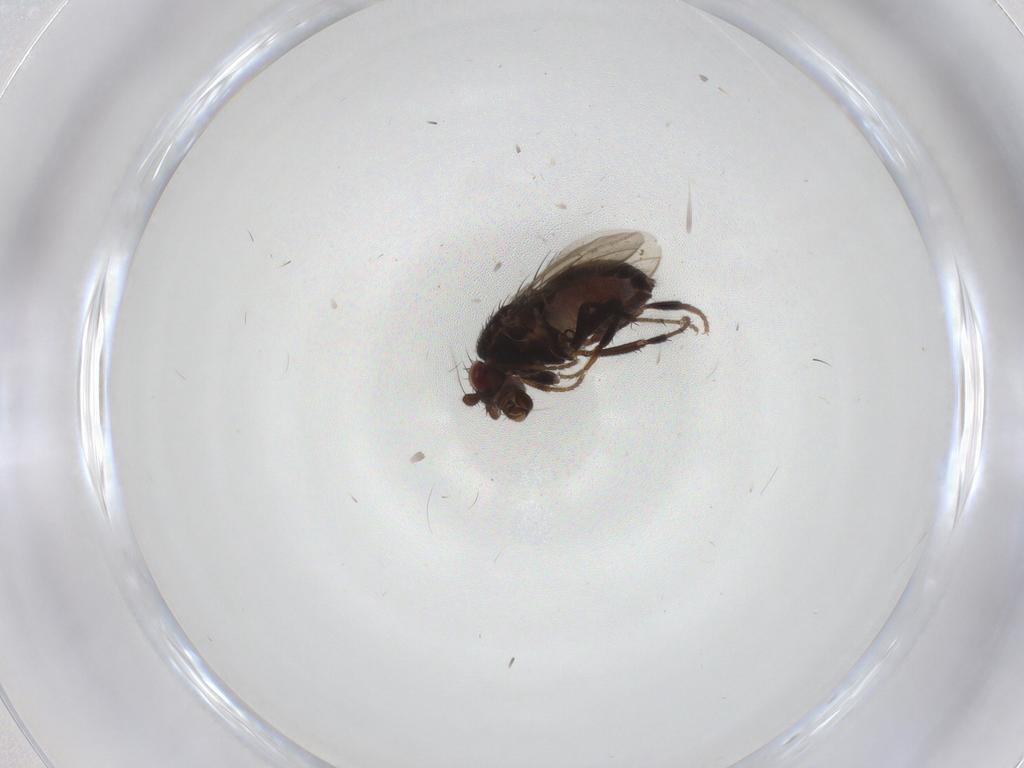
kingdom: Animalia
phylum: Arthropoda
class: Insecta
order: Diptera
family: Sphaeroceridae
